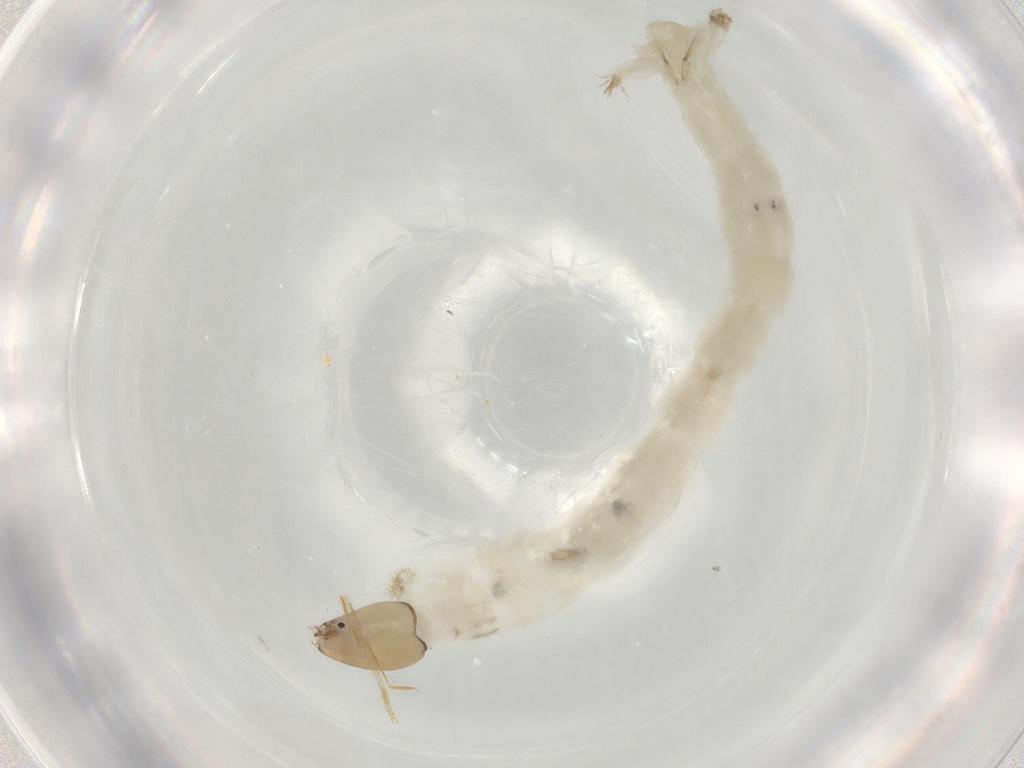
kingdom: Animalia
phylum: Arthropoda
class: Insecta
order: Diptera
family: Chironomidae
